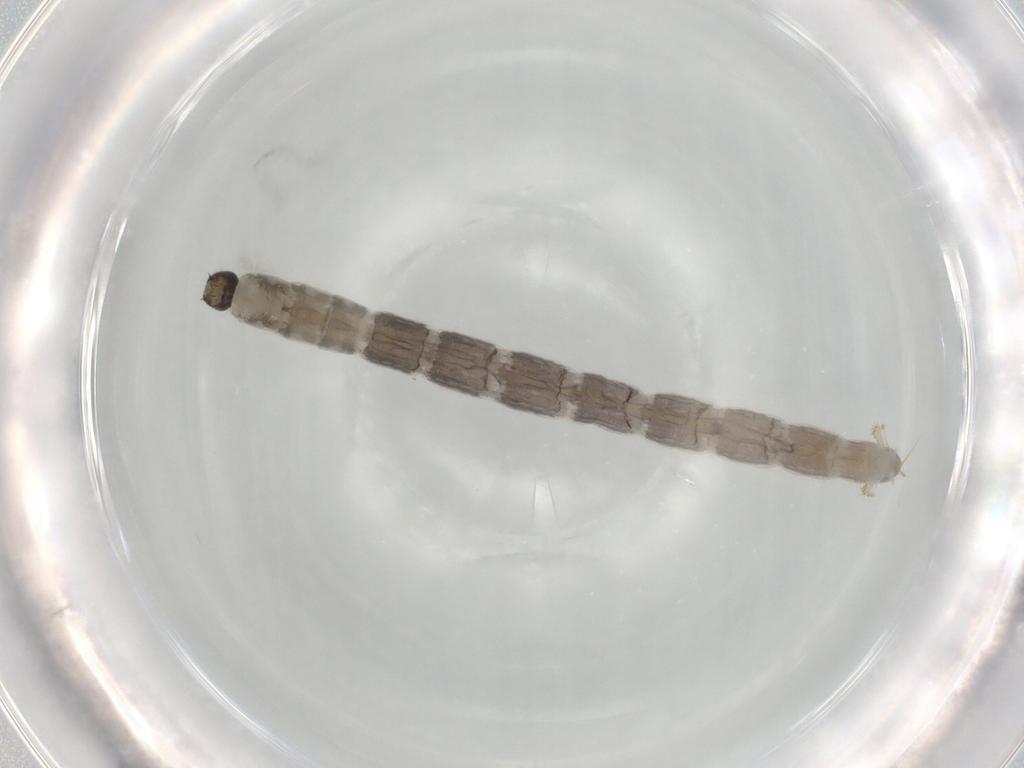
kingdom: Animalia
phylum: Arthropoda
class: Insecta
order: Diptera
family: Sciaridae
